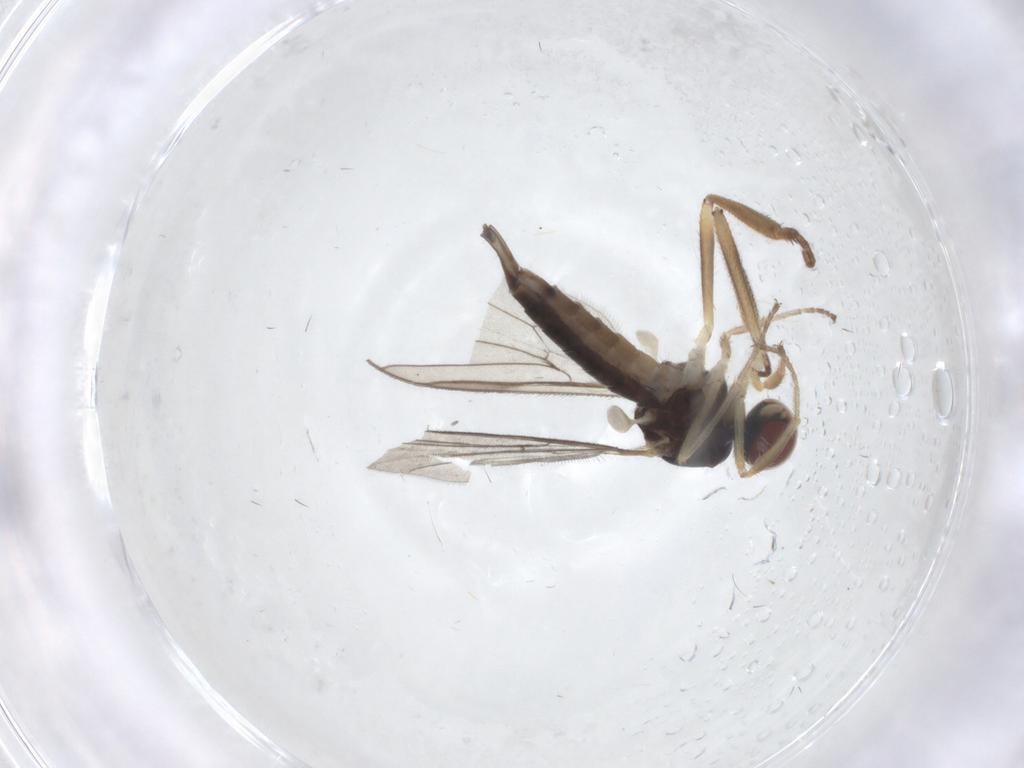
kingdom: Animalia
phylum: Arthropoda
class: Insecta
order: Diptera
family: Hybotidae
